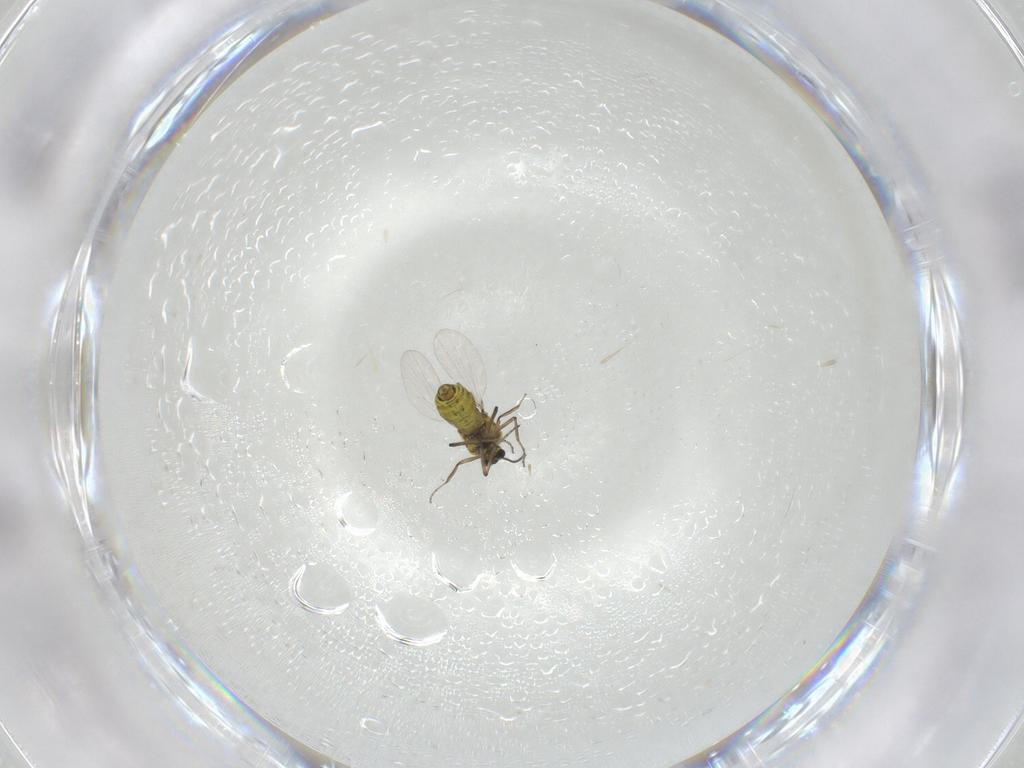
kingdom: Animalia
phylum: Arthropoda
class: Insecta
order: Diptera
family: Ceratopogonidae
